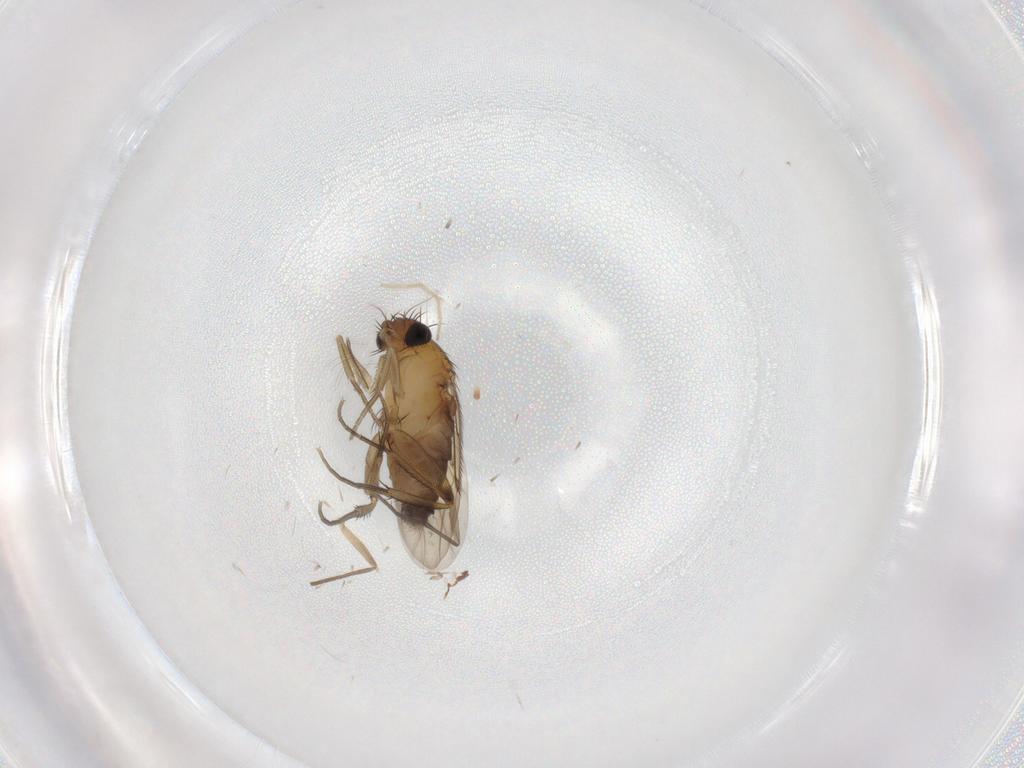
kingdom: Animalia
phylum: Arthropoda
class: Insecta
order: Diptera
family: Phoridae
